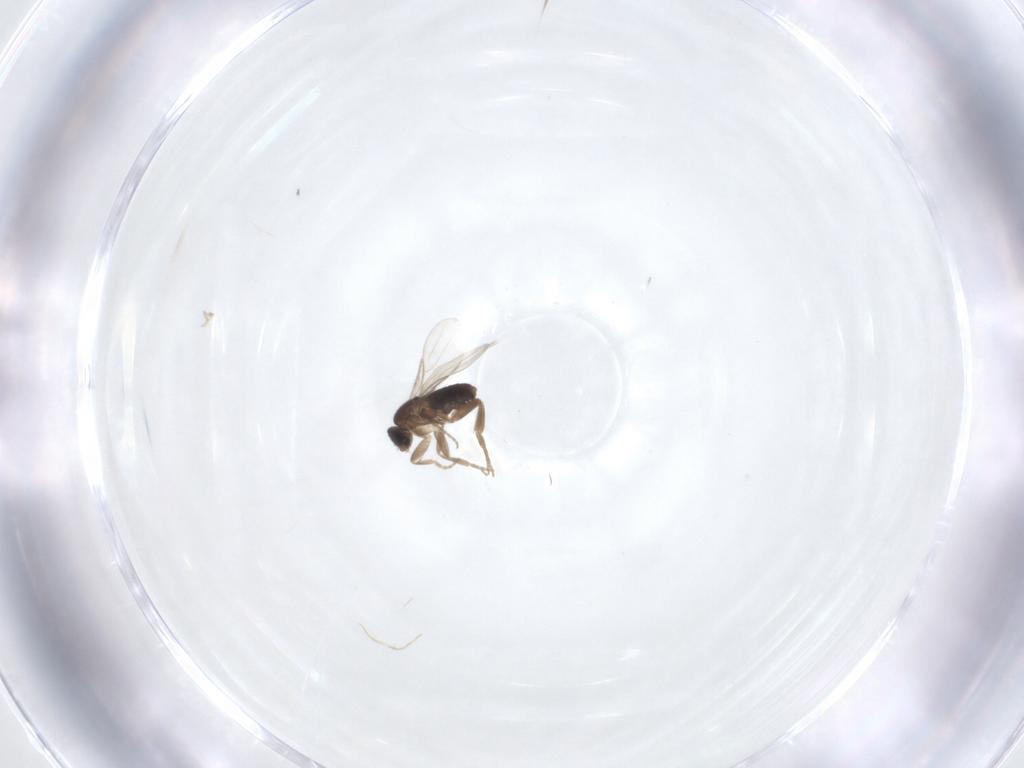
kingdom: Animalia
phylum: Arthropoda
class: Insecta
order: Diptera
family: Phoridae
